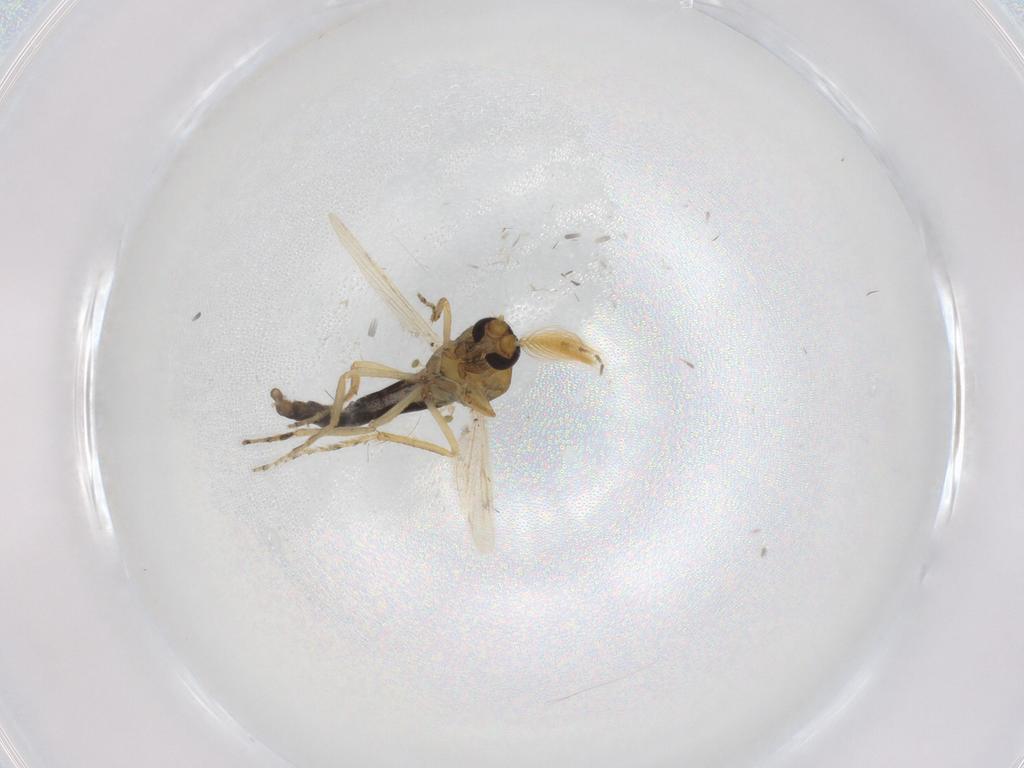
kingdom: Animalia
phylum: Arthropoda
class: Insecta
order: Diptera
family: Ceratopogonidae
